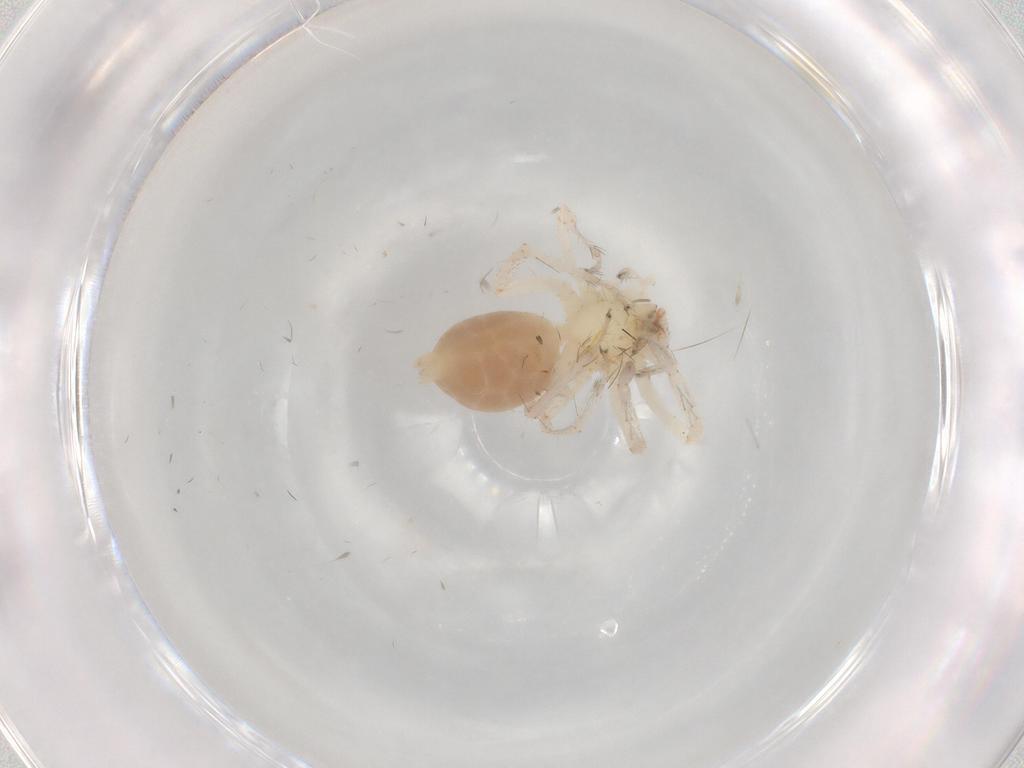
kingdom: Animalia
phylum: Arthropoda
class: Arachnida
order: Araneae
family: Anyphaenidae
